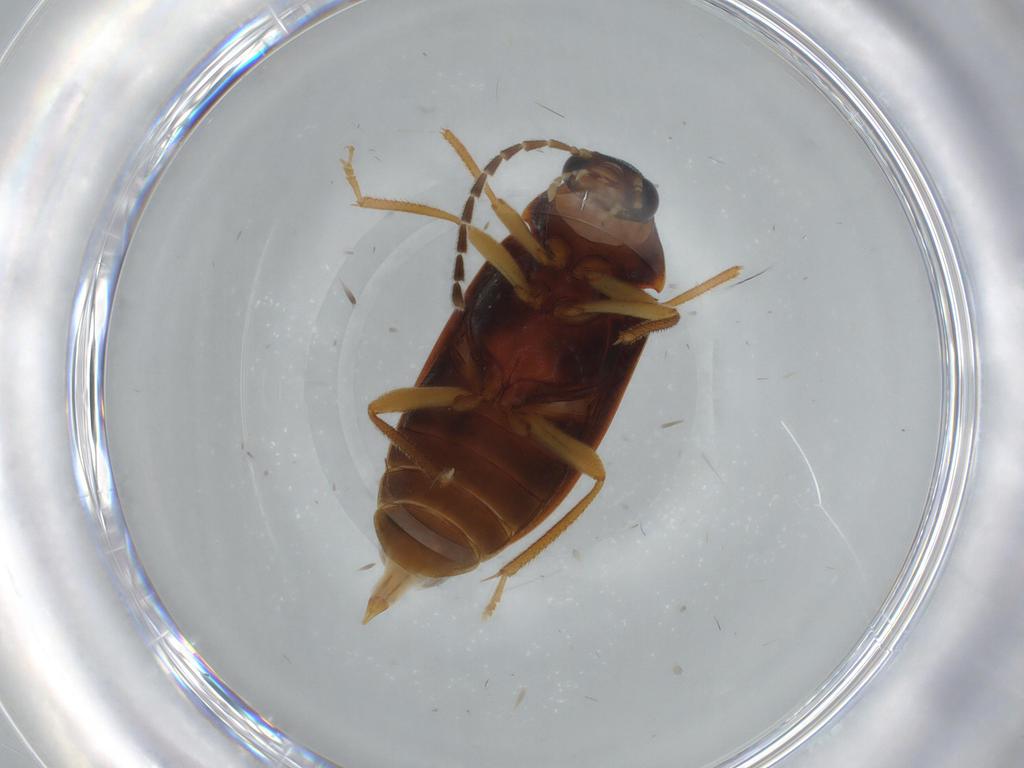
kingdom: Animalia
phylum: Arthropoda
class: Insecta
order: Coleoptera
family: Ptilodactylidae
